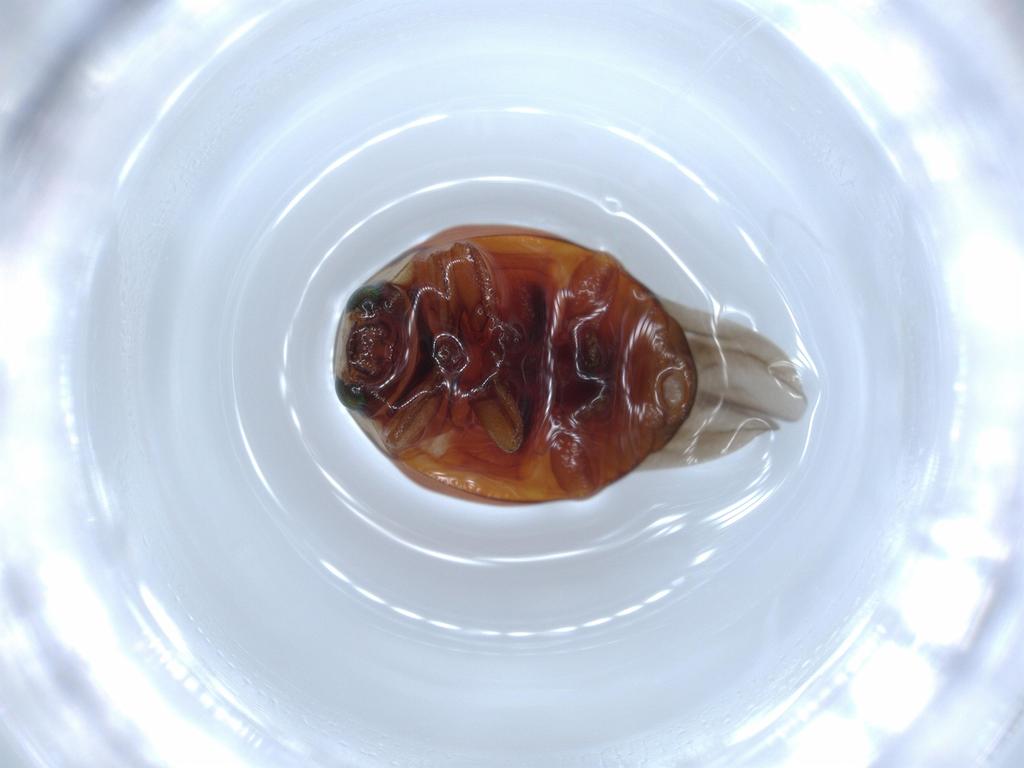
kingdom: Animalia
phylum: Arthropoda
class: Insecta
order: Coleoptera
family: Coccinellidae
